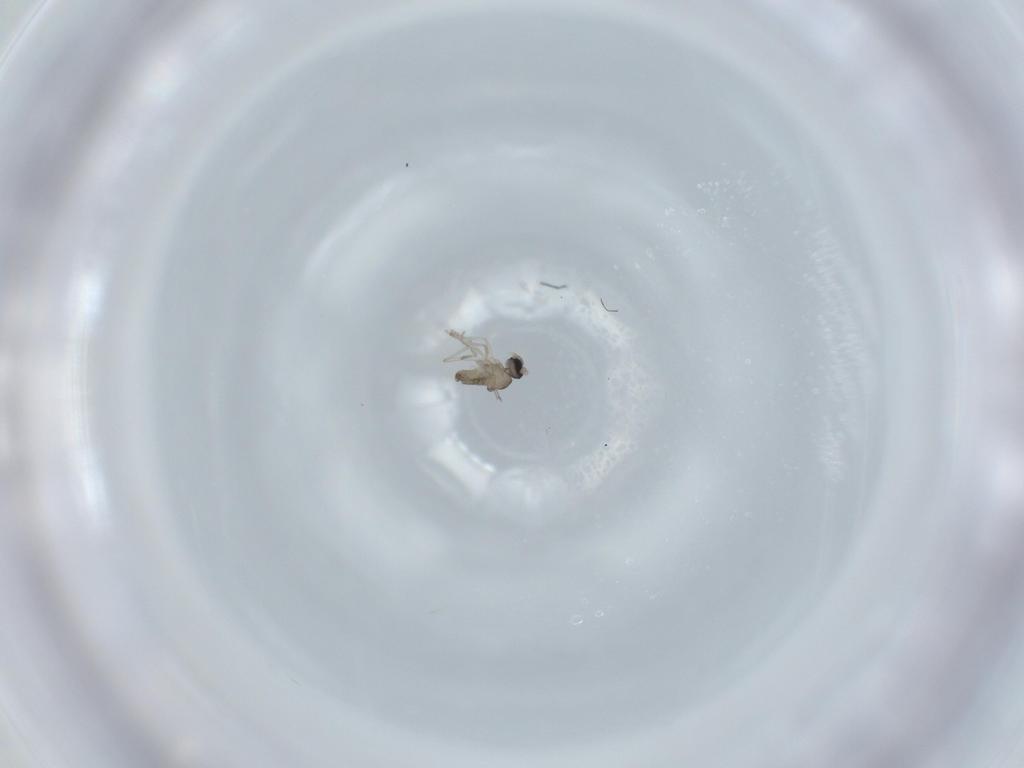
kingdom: Animalia
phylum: Arthropoda
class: Insecta
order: Diptera
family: Cecidomyiidae
